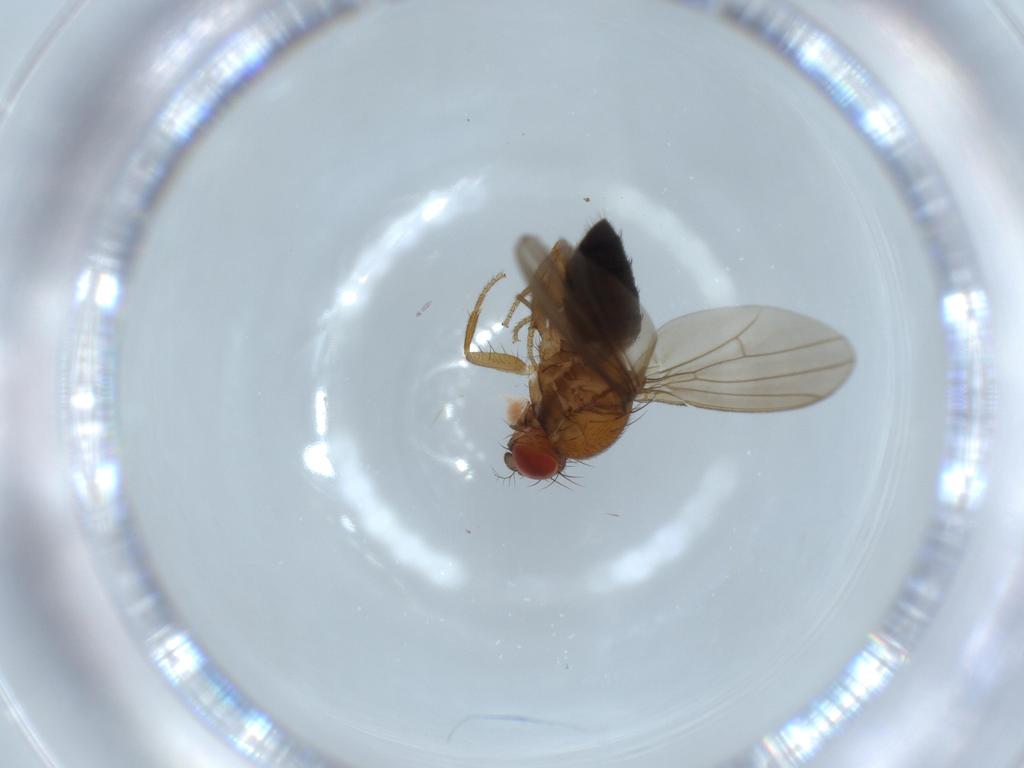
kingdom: Animalia
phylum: Arthropoda
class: Insecta
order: Diptera
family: Drosophilidae
